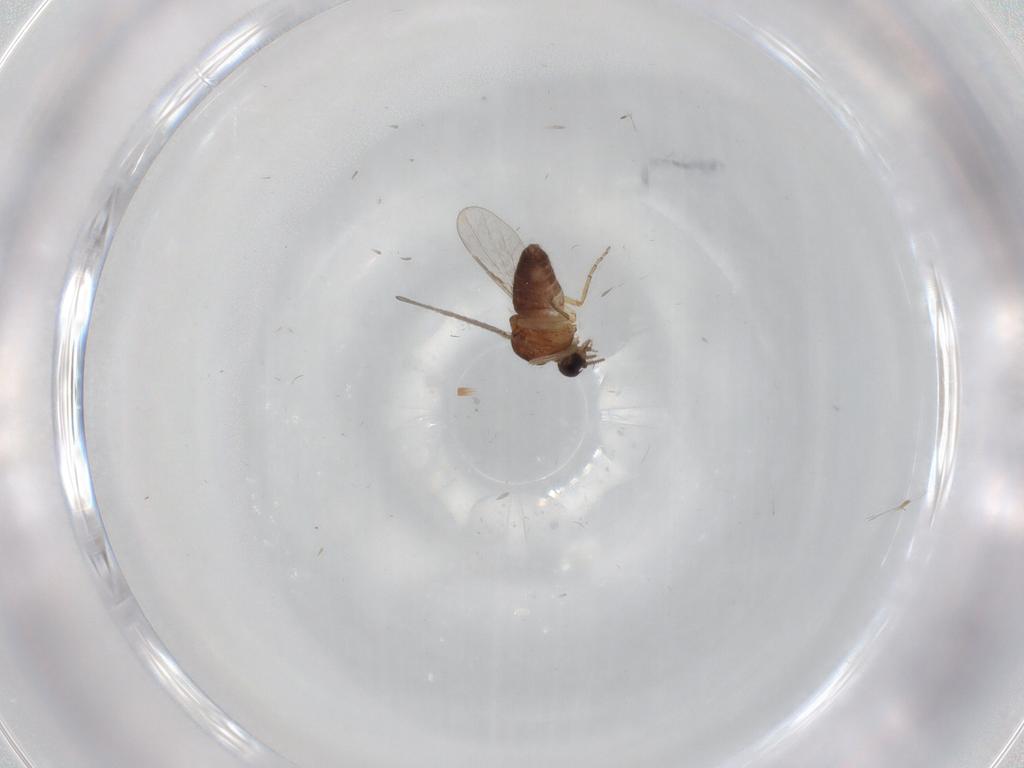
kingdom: Animalia
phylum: Arthropoda
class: Insecta
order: Diptera
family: Ceratopogonidae
